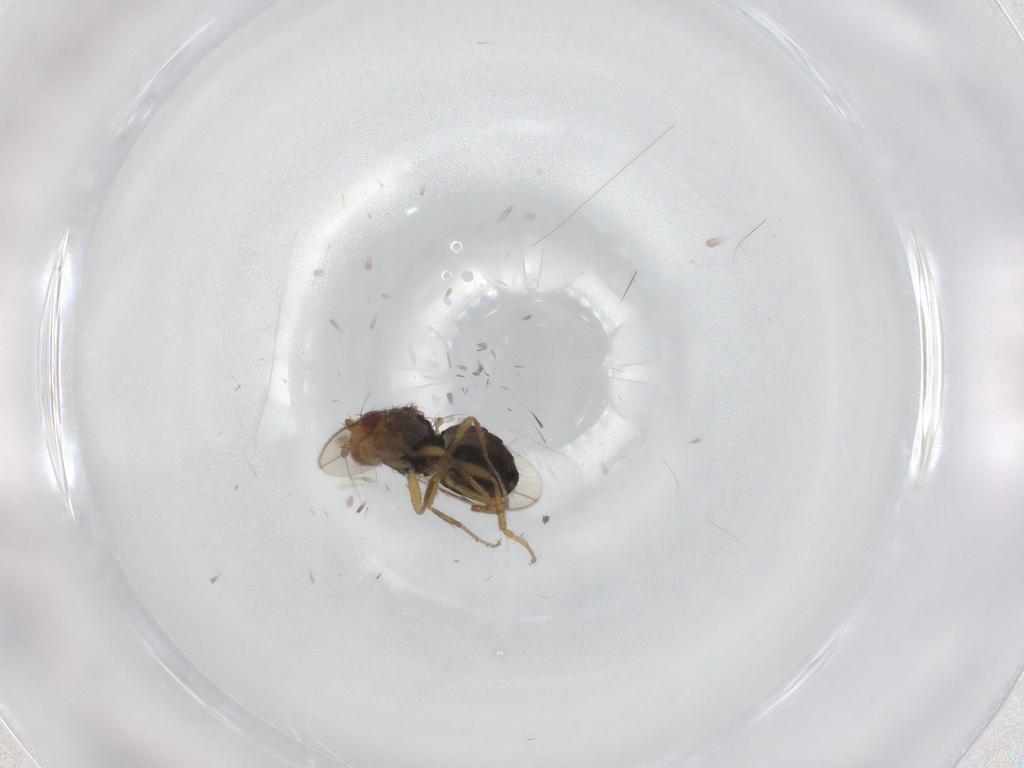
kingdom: Animalia
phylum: Arthropoda
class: Insecta
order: Diptera
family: Sphaeroceridae
